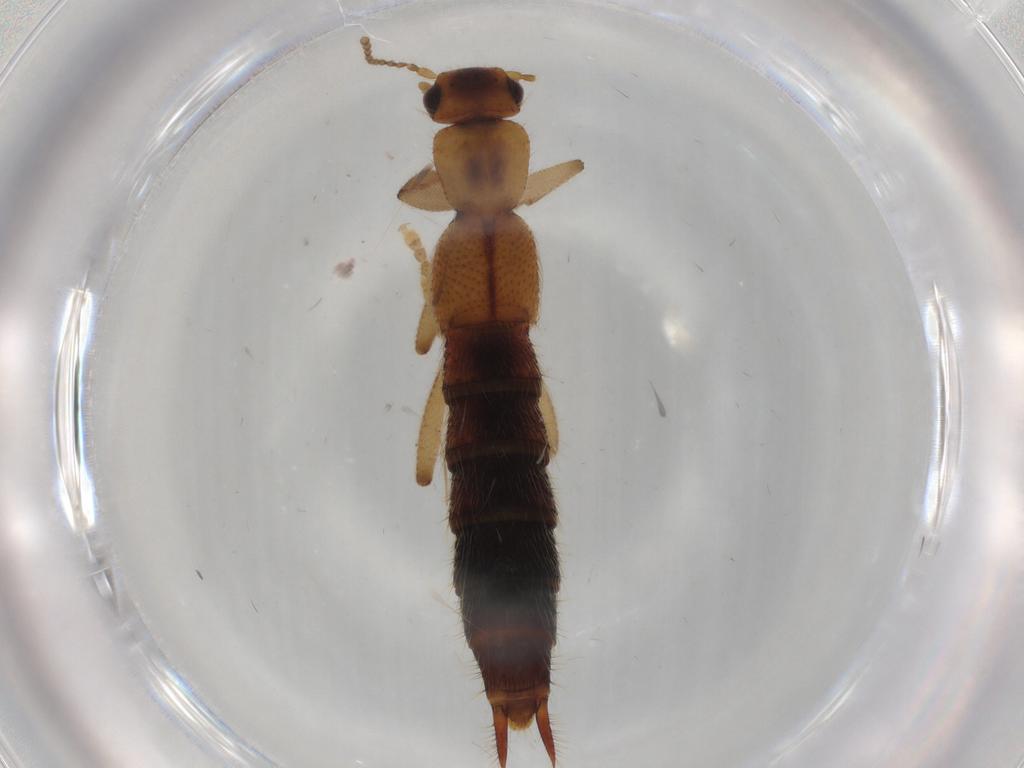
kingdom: Animalia
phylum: Arthropoda
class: Insecta
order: Coleoptera
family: Staphylinidae
